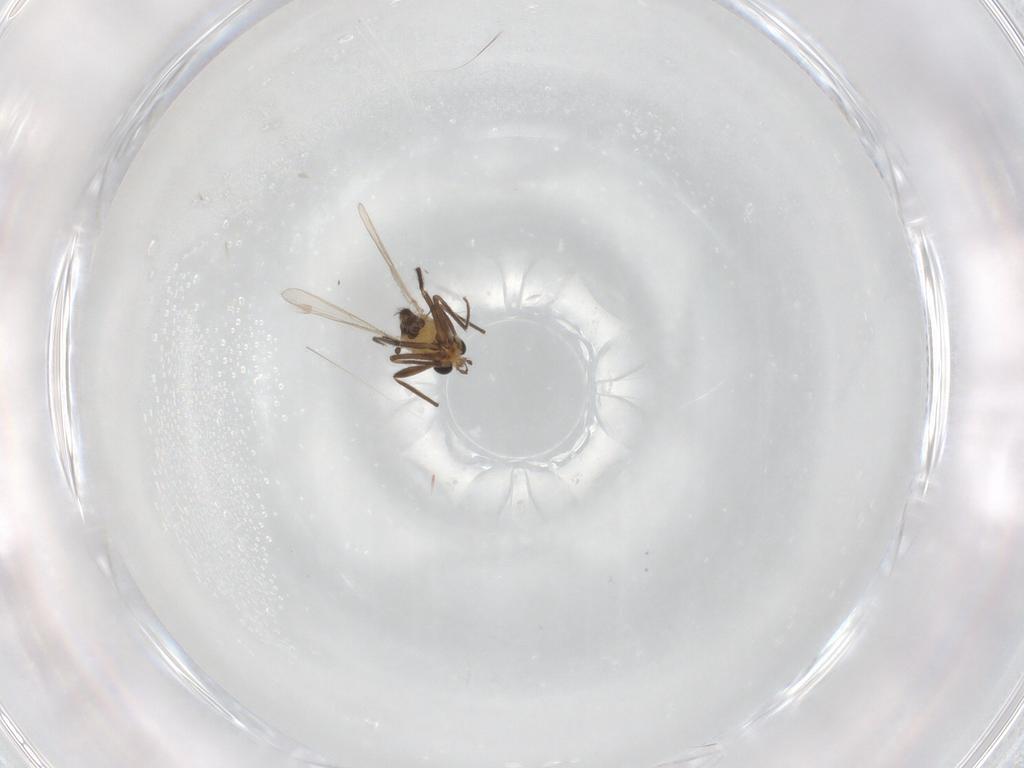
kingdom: Animalia
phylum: Arthropoda
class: Insecta
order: Diptera
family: Chironomidae
